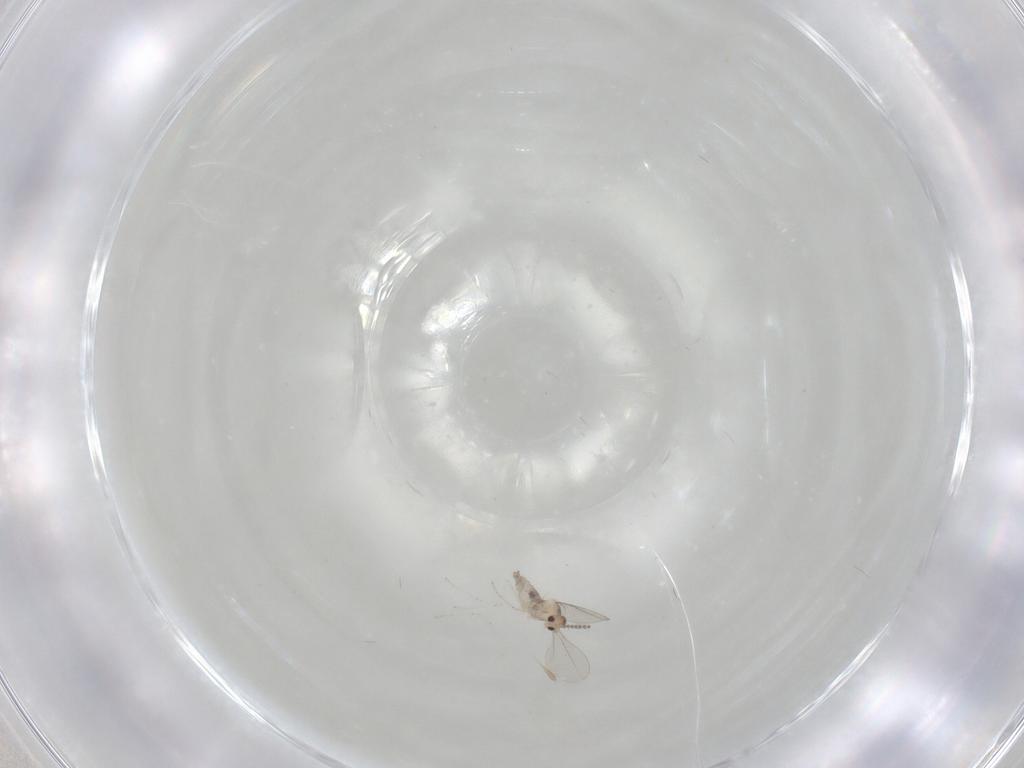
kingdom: Animalia
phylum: Arthropoda
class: Insecta
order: Diptera
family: Cecidomyiidae
